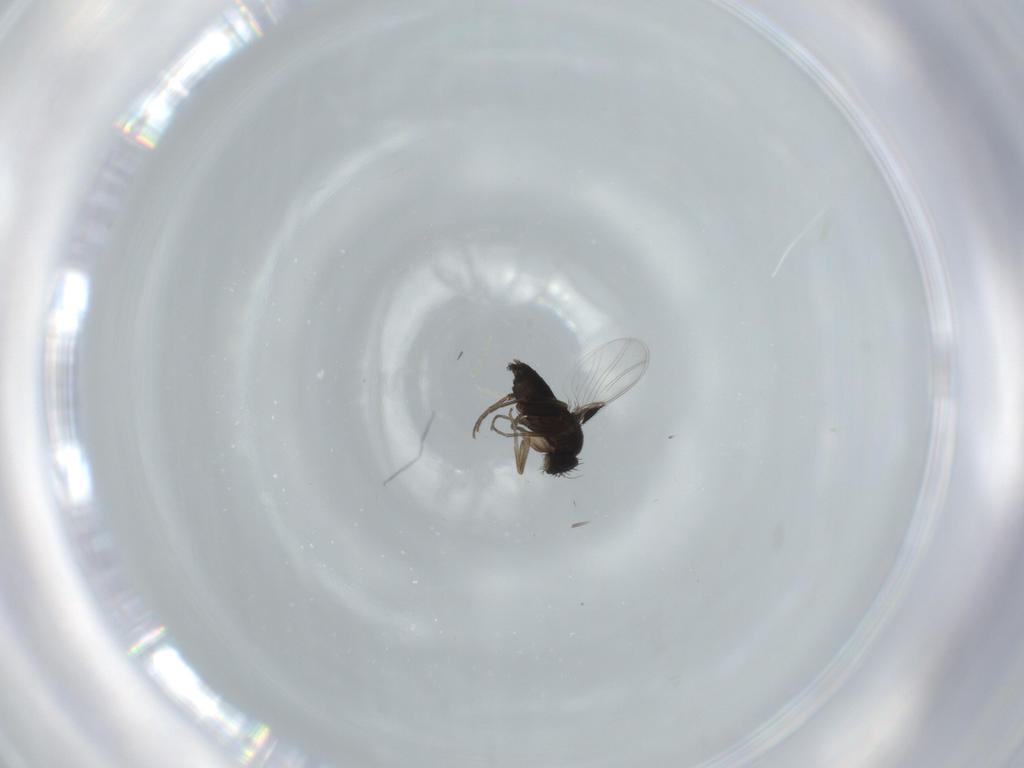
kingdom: Animalia
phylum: Arthropoda
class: Insecta
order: Diptera
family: Phoridae
